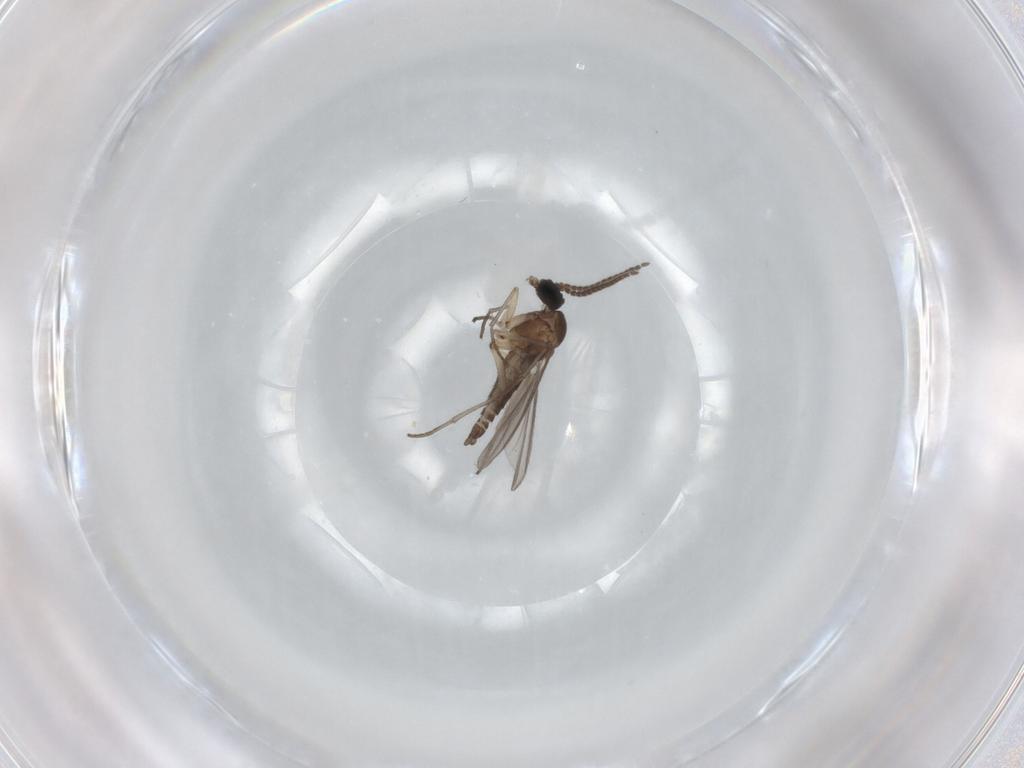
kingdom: Animalia
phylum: Arthropoda
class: Insecta
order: Diptera
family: Sciaridae
